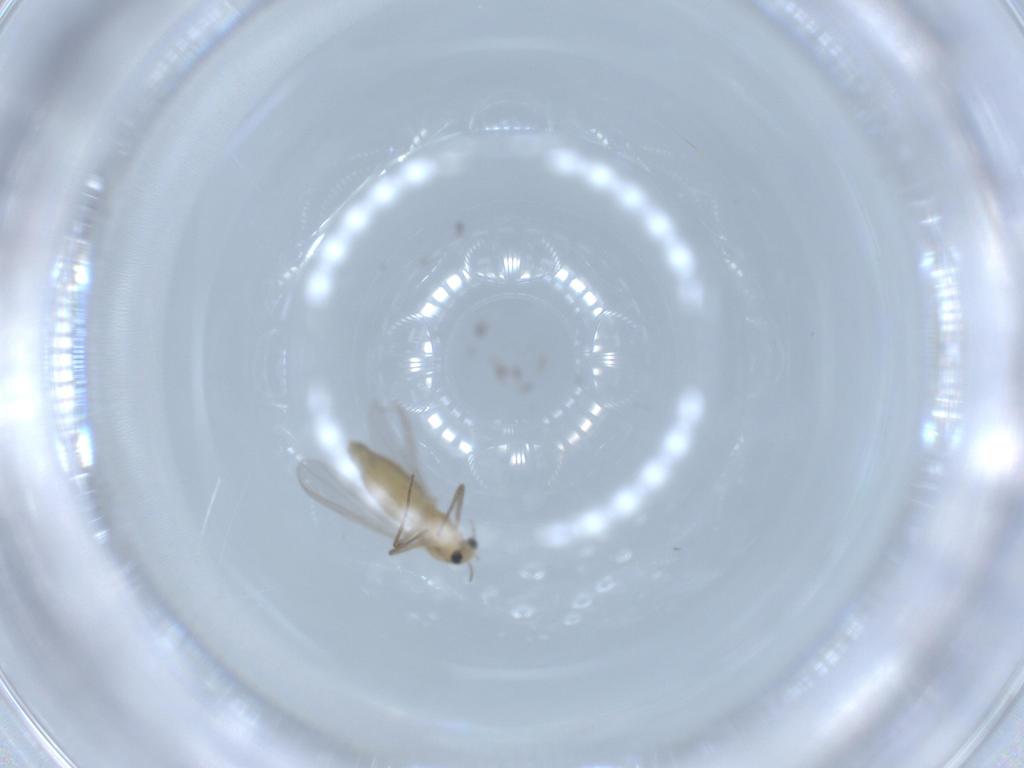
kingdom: Animalia
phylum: Arthropoda
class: Insecta
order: Diptera
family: Chironomidae
